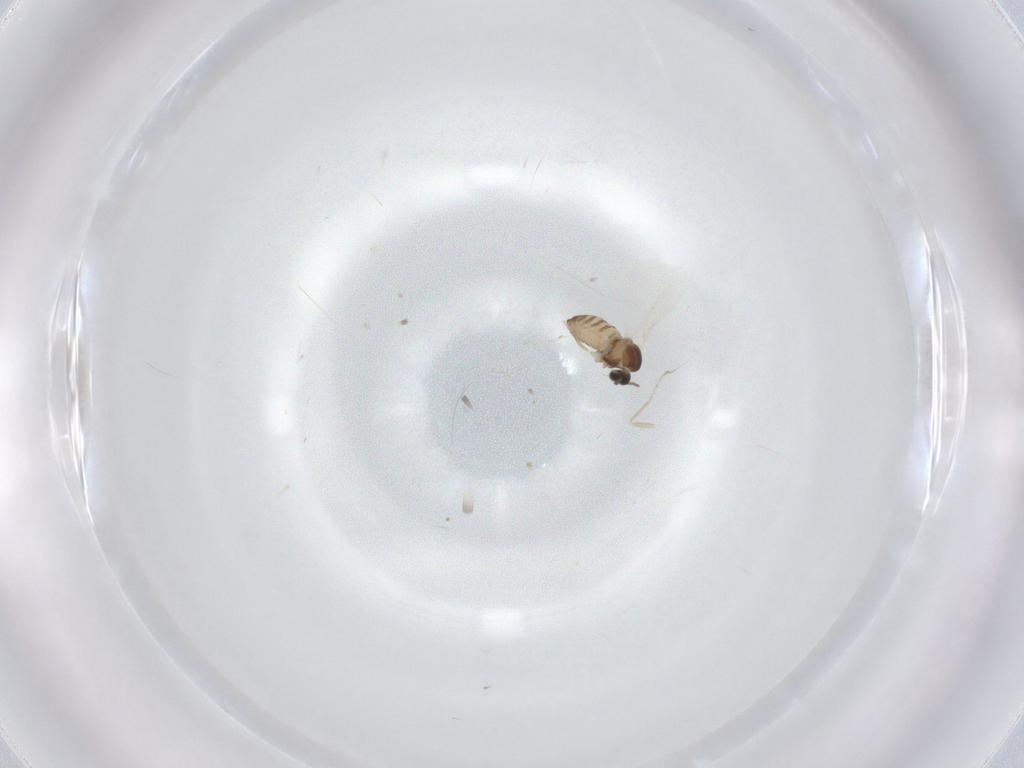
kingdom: Animalia
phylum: Arthropoda
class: Insecta
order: Diptera
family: Cecidomyiidae
